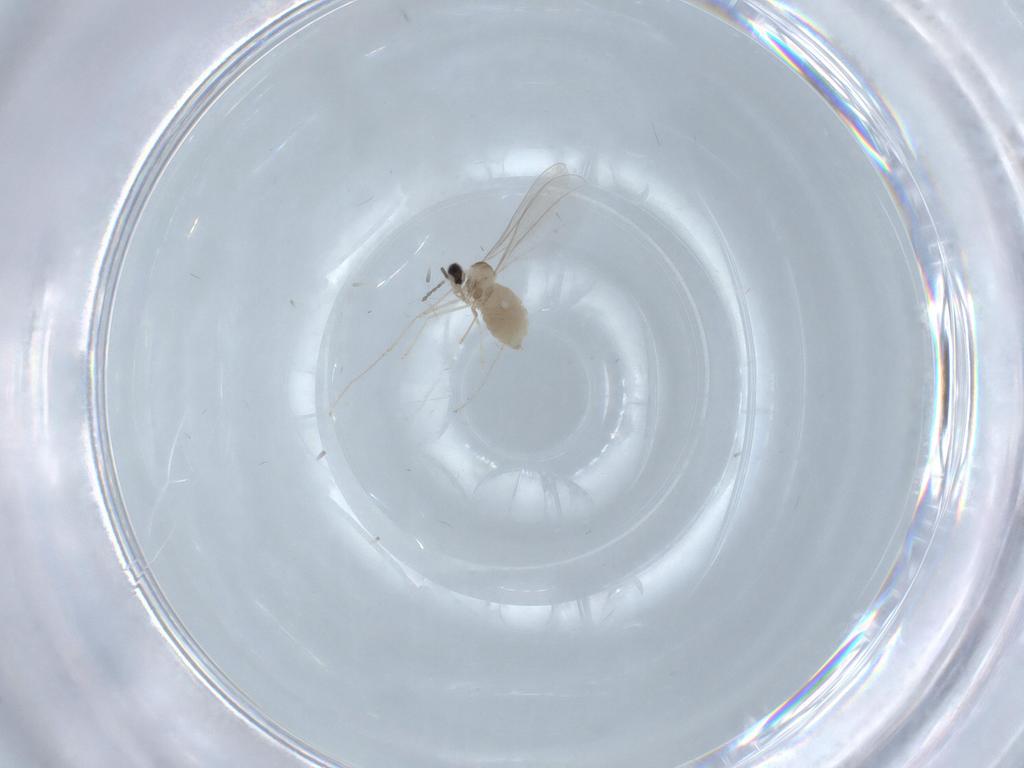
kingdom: Animalia
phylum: Arthropoda
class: Insecta
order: Diptera
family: Cecidomyiidae
